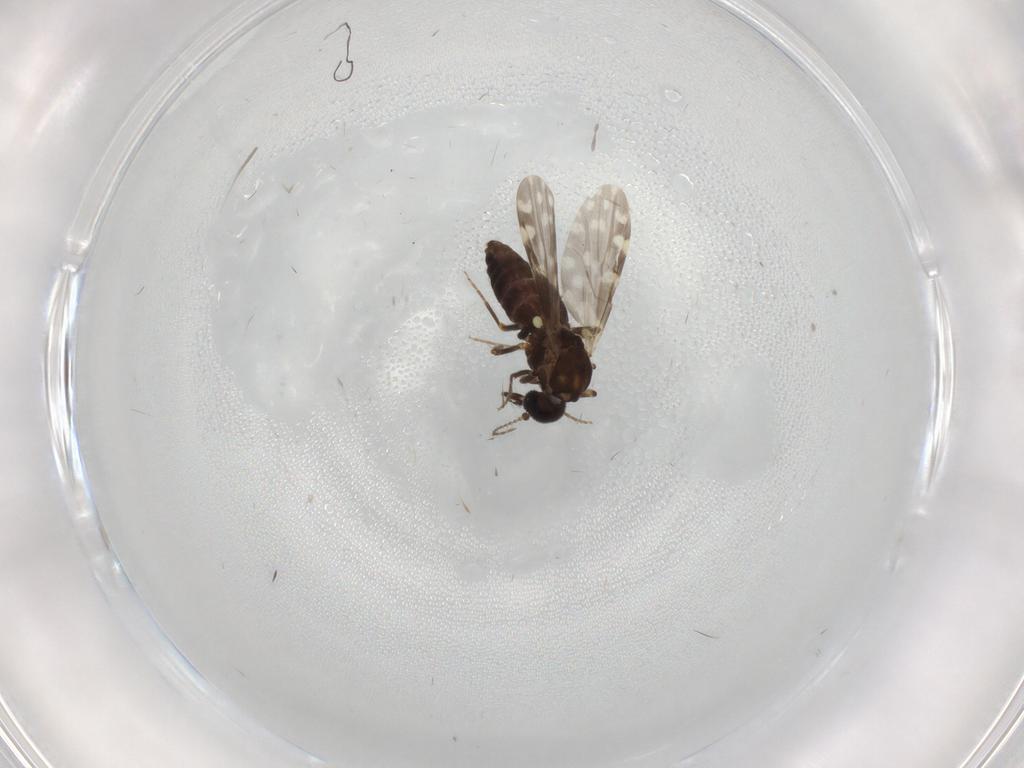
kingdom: Animalia
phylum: Arthropoda
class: Insecta
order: Diptera
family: Ceratopogonidae
